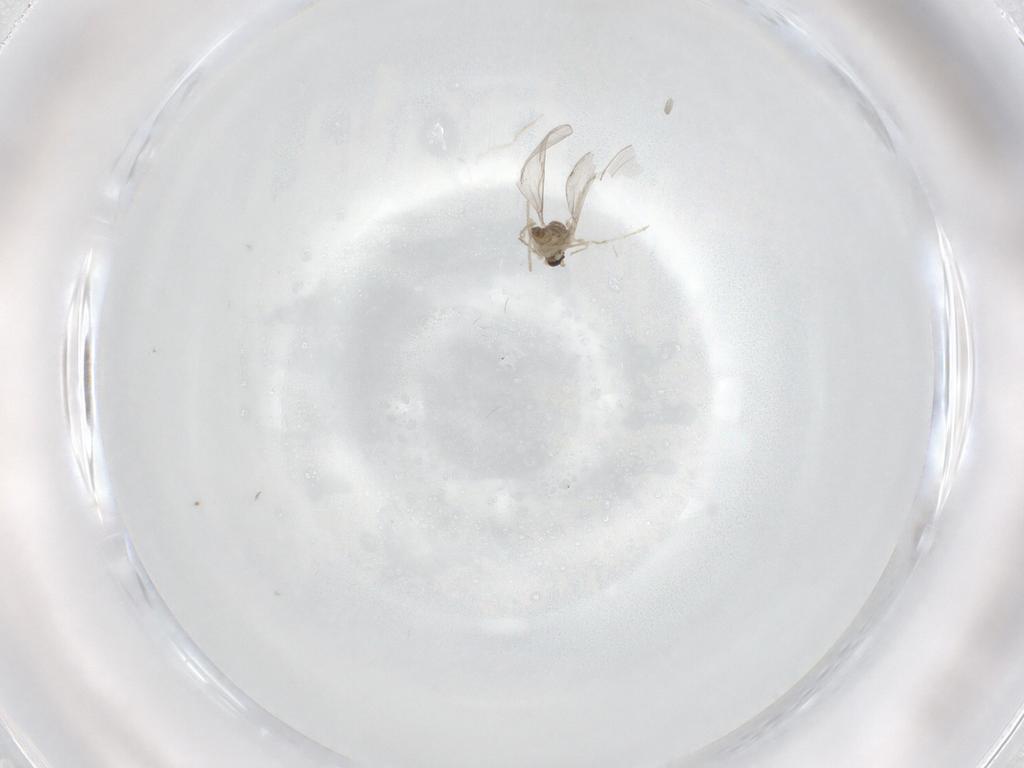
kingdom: Animalia
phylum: Arthropoda
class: Insecta
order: Diptera
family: Cecidomyiidae
